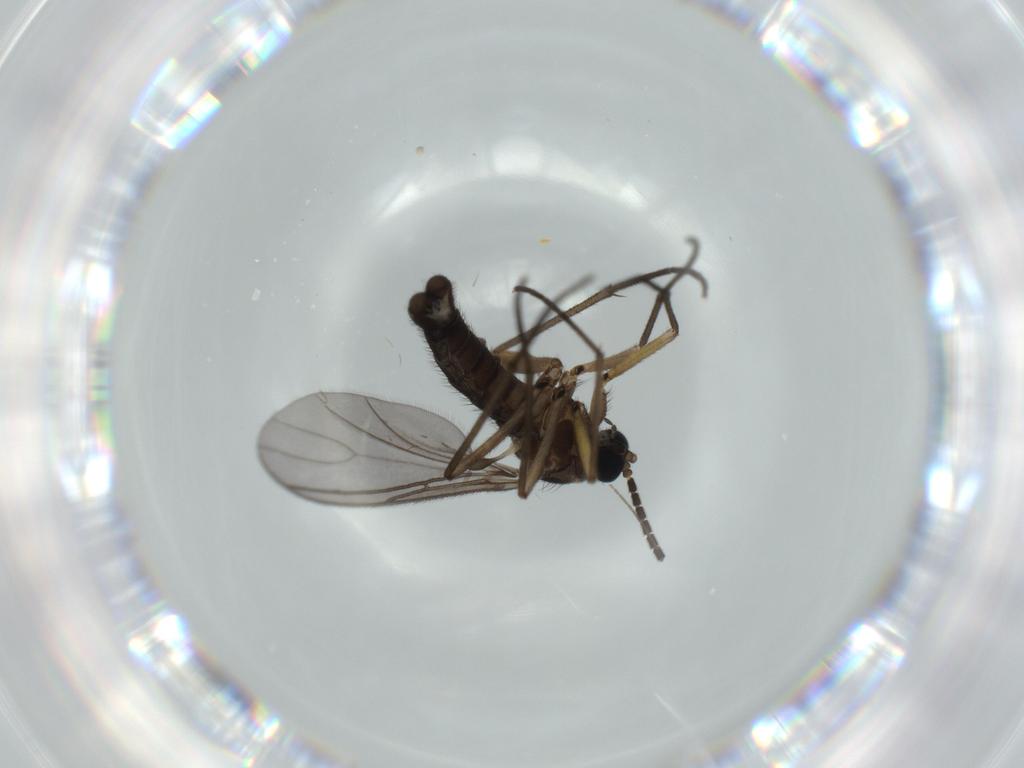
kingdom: Animalia
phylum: Arthropoda
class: Insecta
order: Diptera
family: Sciaridae
